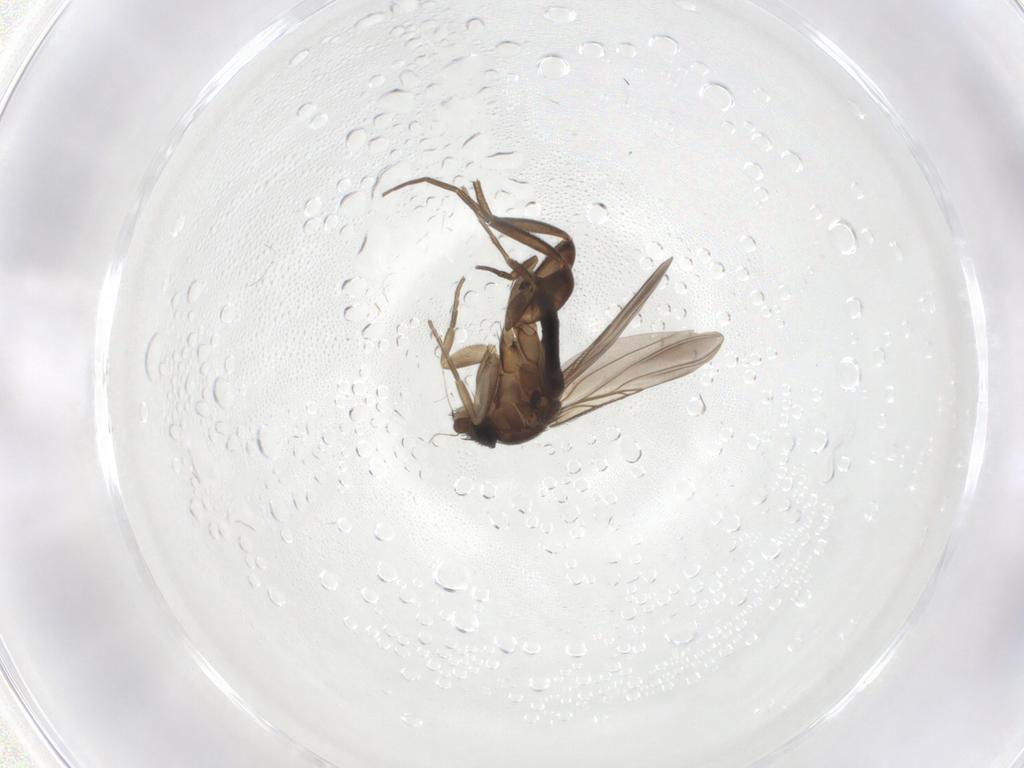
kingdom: Animalia
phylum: Arthropoda
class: Insecta
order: Diptera
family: Phoridae
